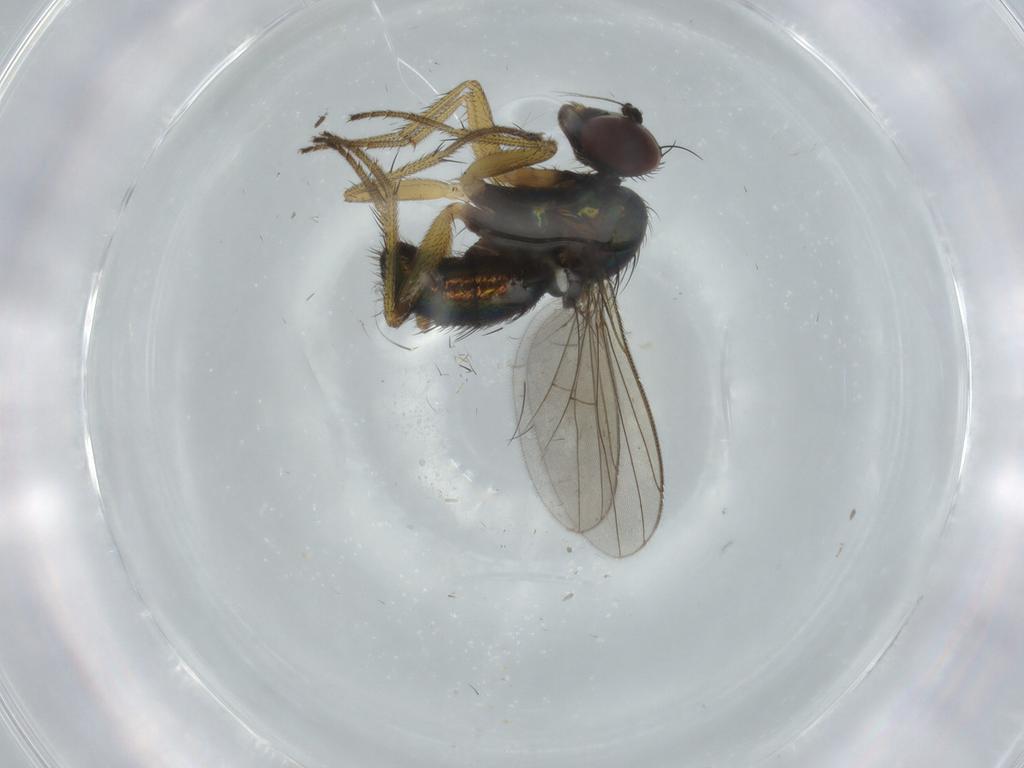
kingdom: Animalia
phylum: Arthropoda
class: Insecta
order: Diptera
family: Dolichopodidae
